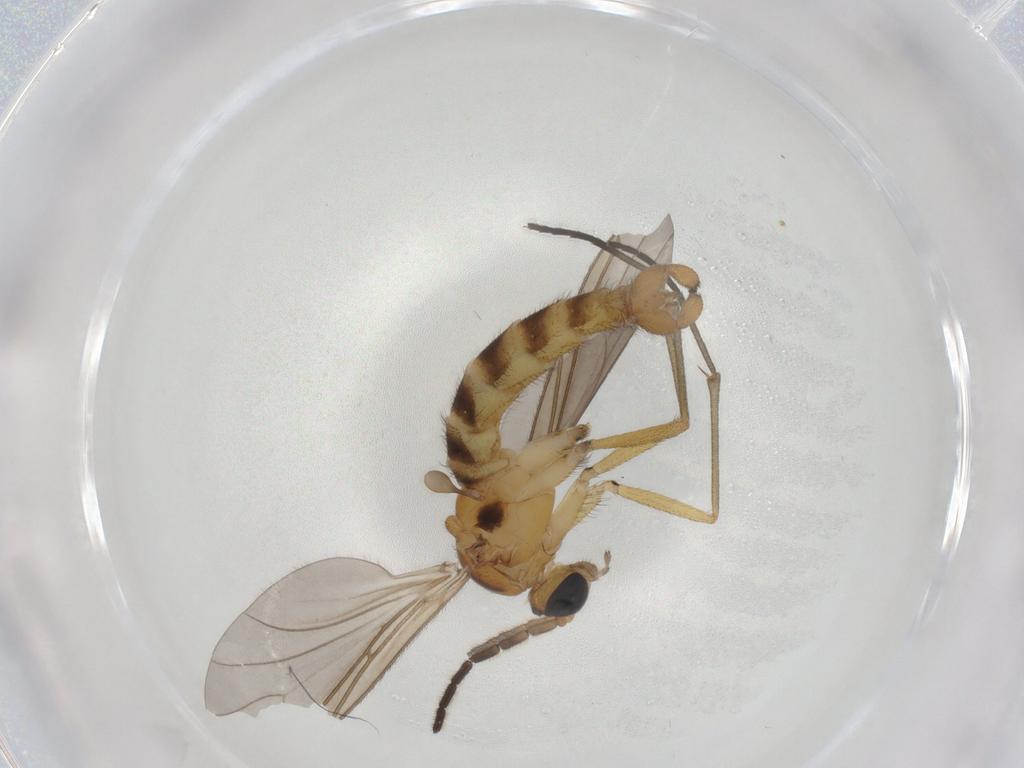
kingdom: Animalia
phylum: Arthropoda
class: Insecta
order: Diptera
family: Sciaridae
